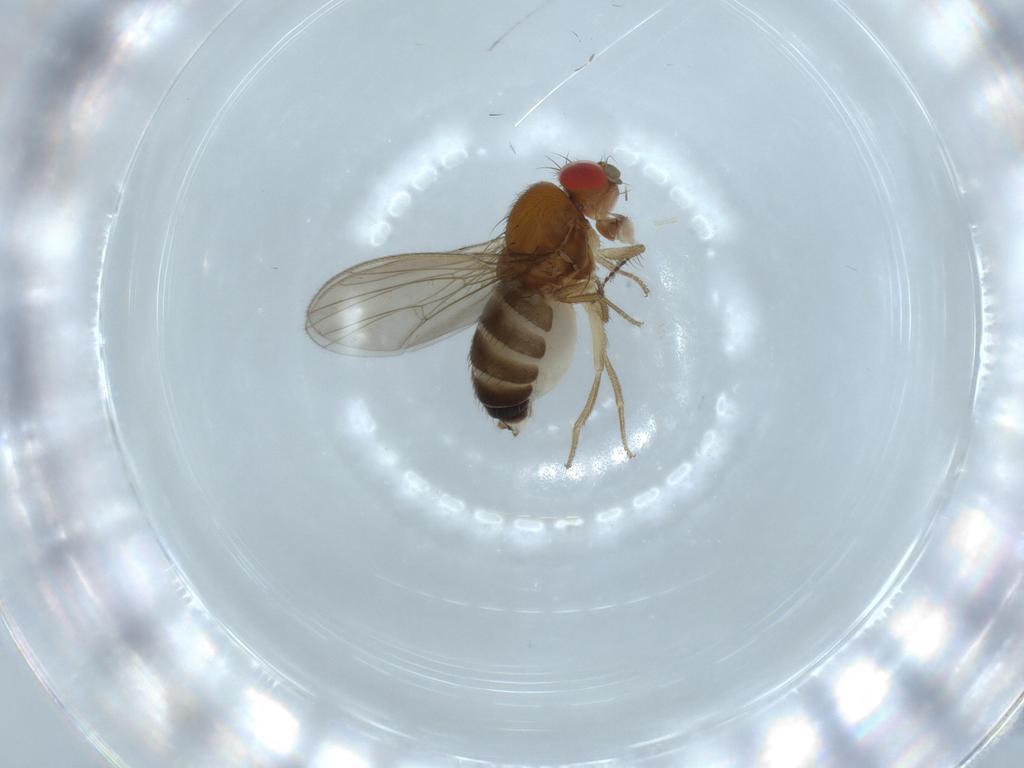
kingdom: Animalia
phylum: Arthropoda
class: Insecta
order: Diptera
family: Drosophilidae
